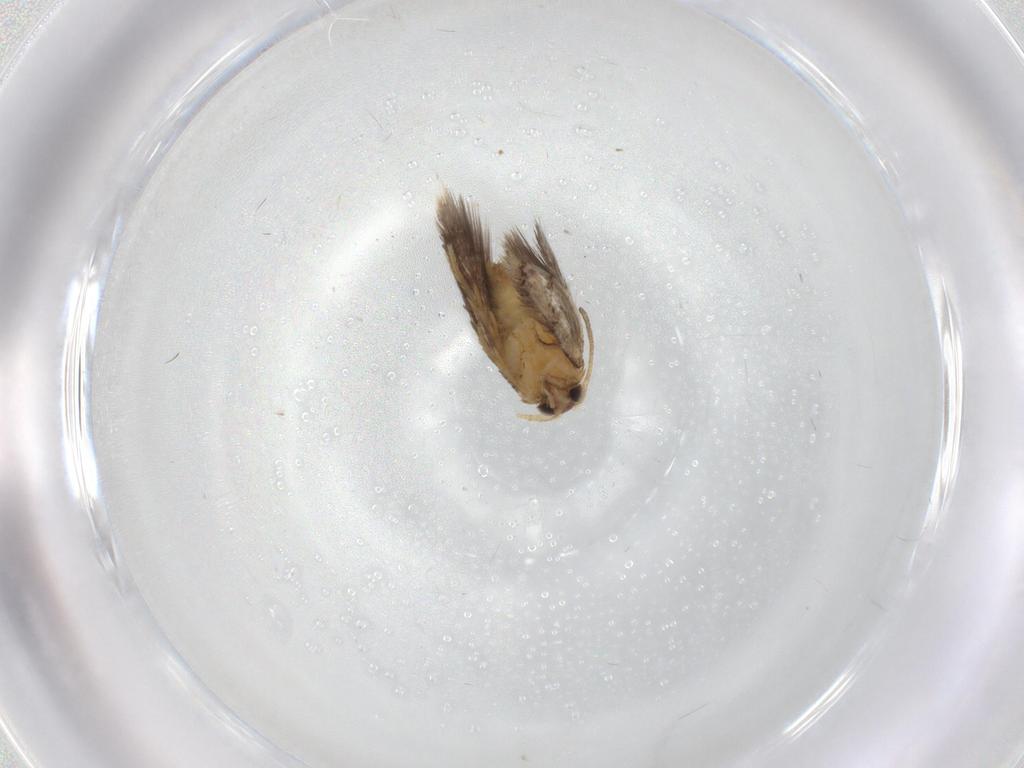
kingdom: Animalia
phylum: Arthropoda
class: Insecta
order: Lepidoptera
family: Nepticulidae
